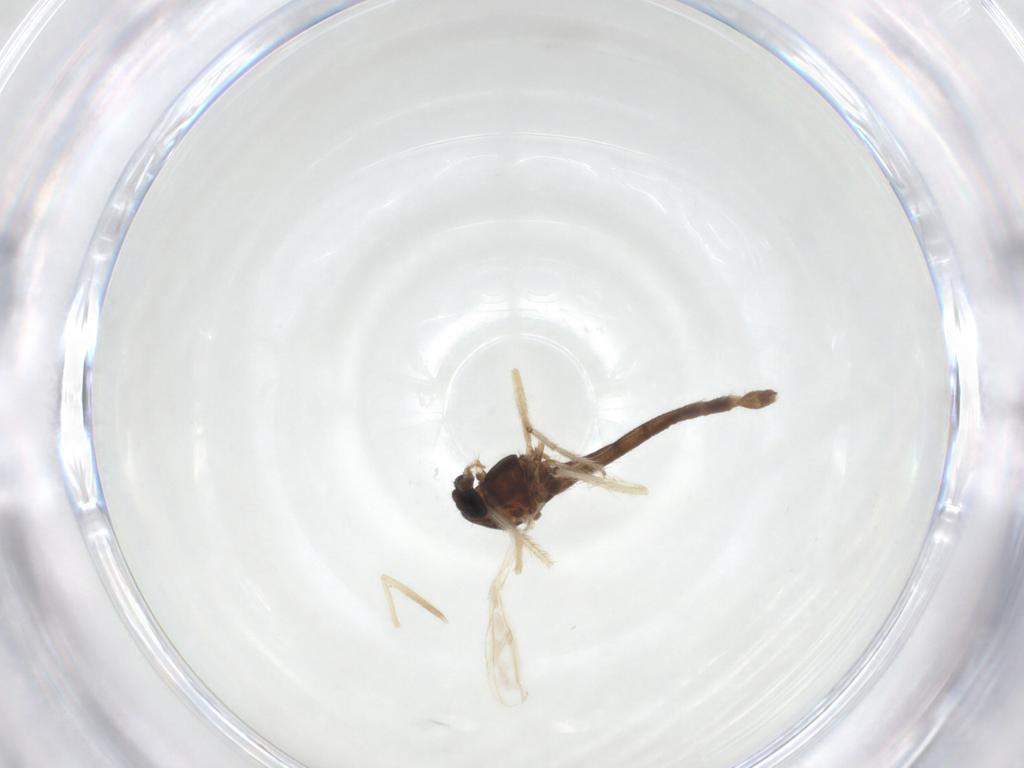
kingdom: Animalia
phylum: Arthropoda
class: Insecta
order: Diptera
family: Chironomidae
